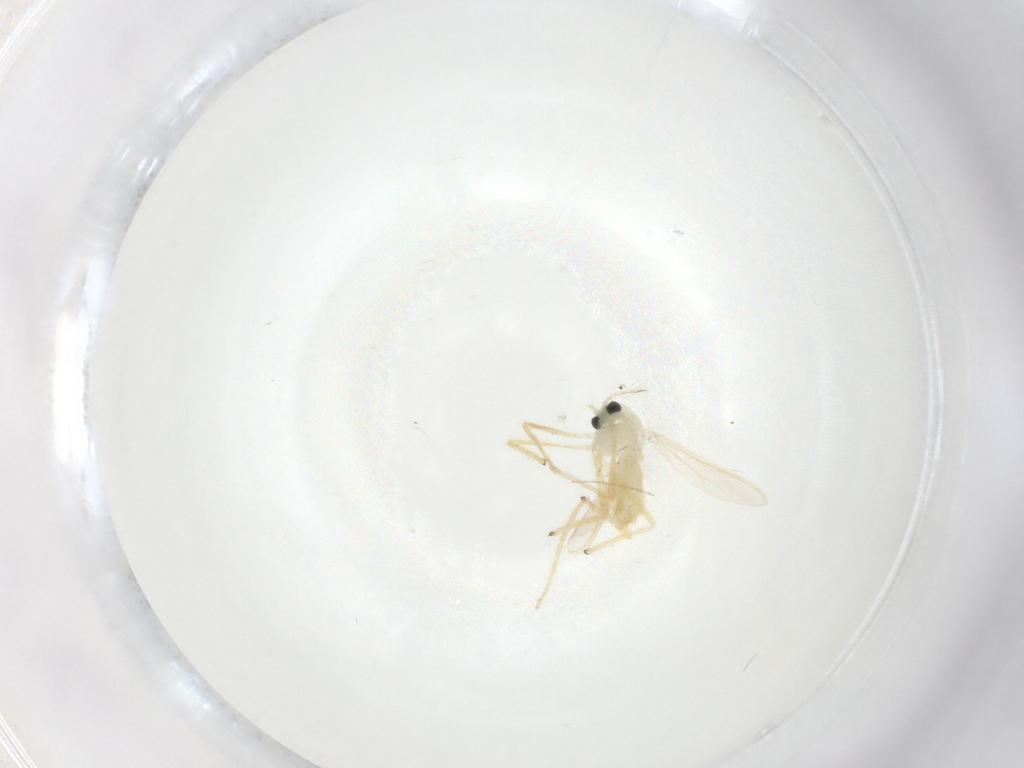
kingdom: Animalia
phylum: Arthropoda
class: Insecta
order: Diptera
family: Chironomidae
